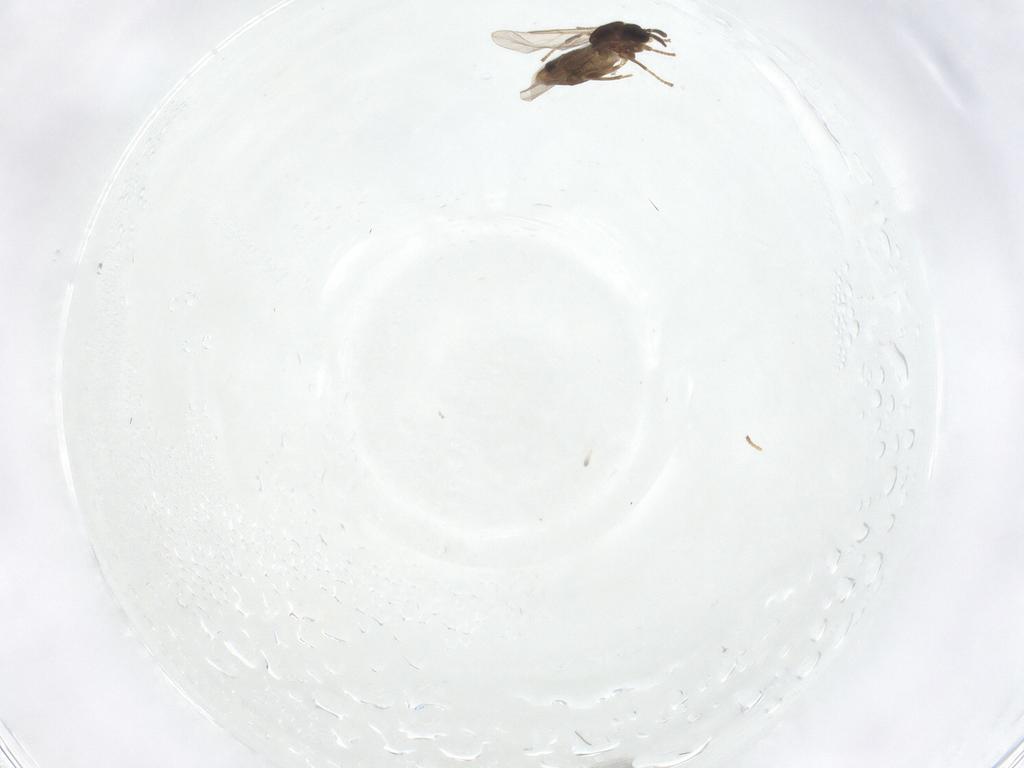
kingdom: Animalia
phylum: Arthropoda
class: Insecta
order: Diptera
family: Scatopsidae
